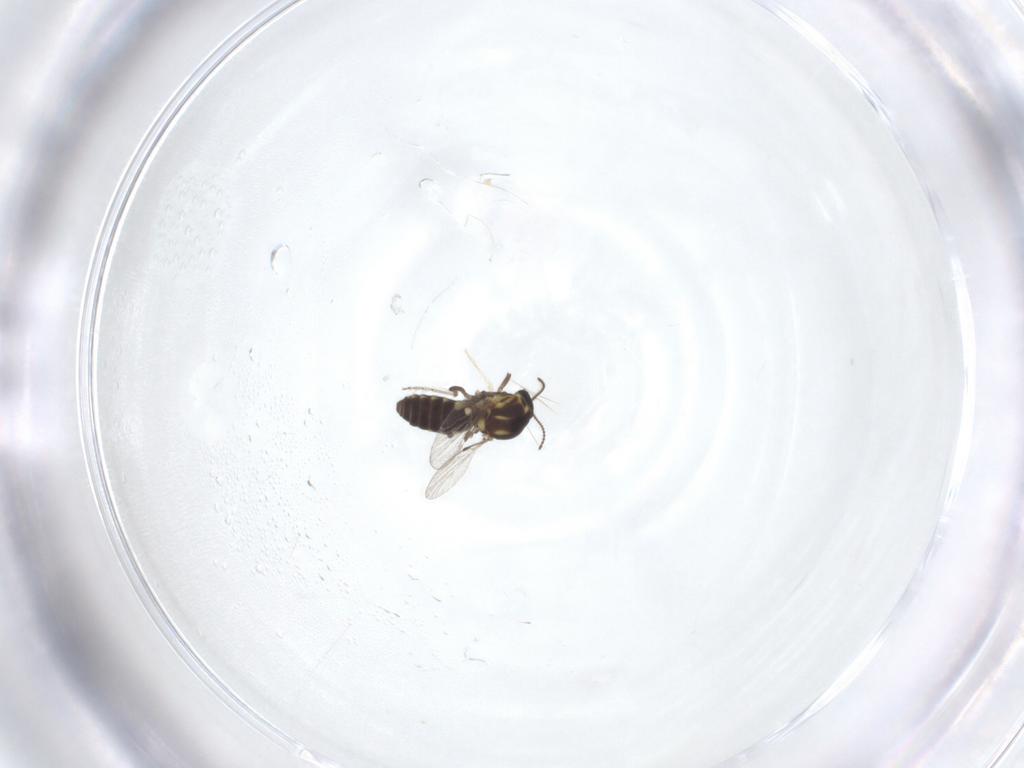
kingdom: Animalia
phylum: Arthropoda
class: Insecta
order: Diptera
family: Ceratopogonidae
